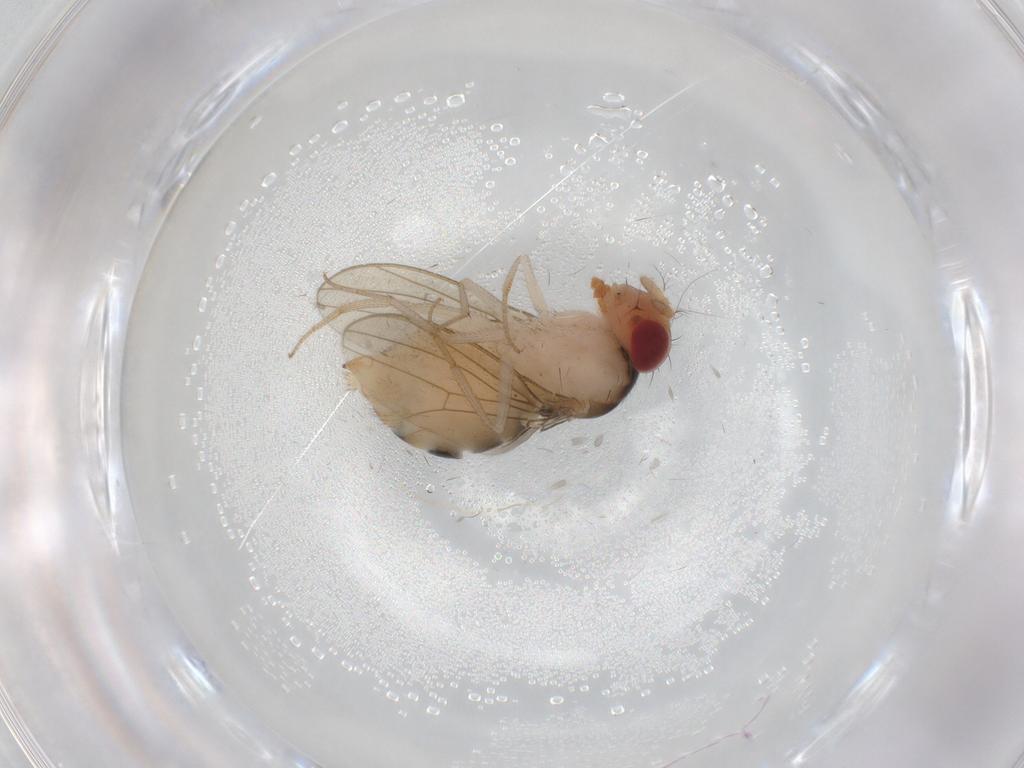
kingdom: Animalia
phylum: Arthropoda
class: Insecta
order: Diptera
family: Drosophilidae
